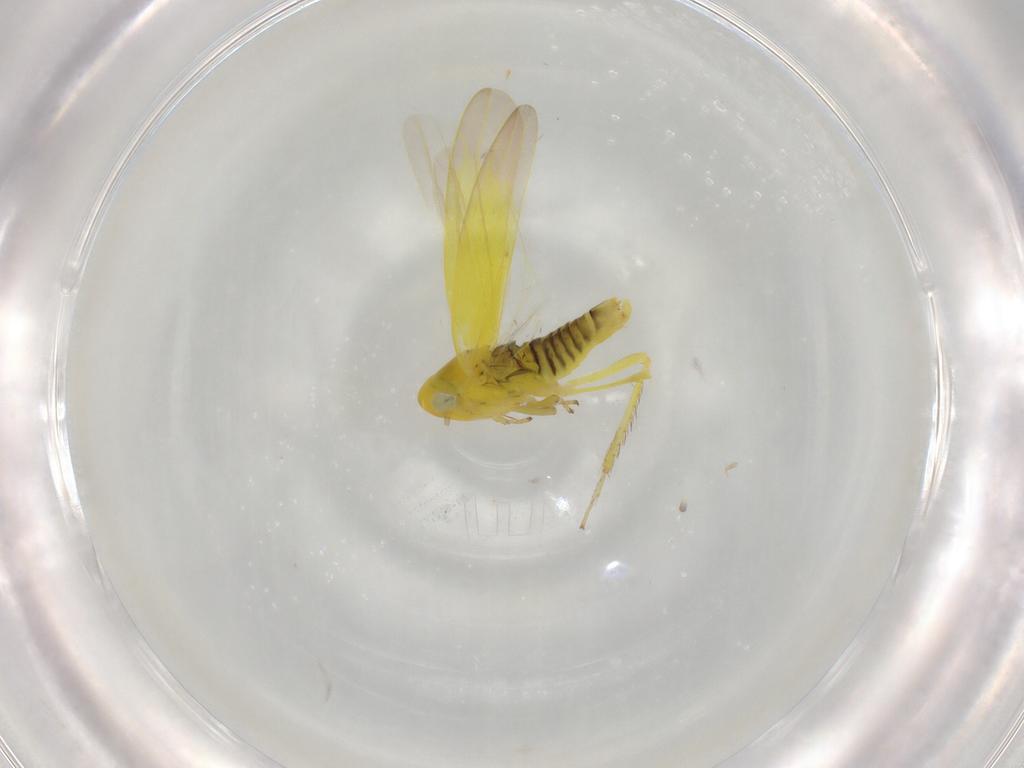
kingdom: Animalia
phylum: Arthropoda
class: Insecta
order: Hemiptera
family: Cicadellidae
